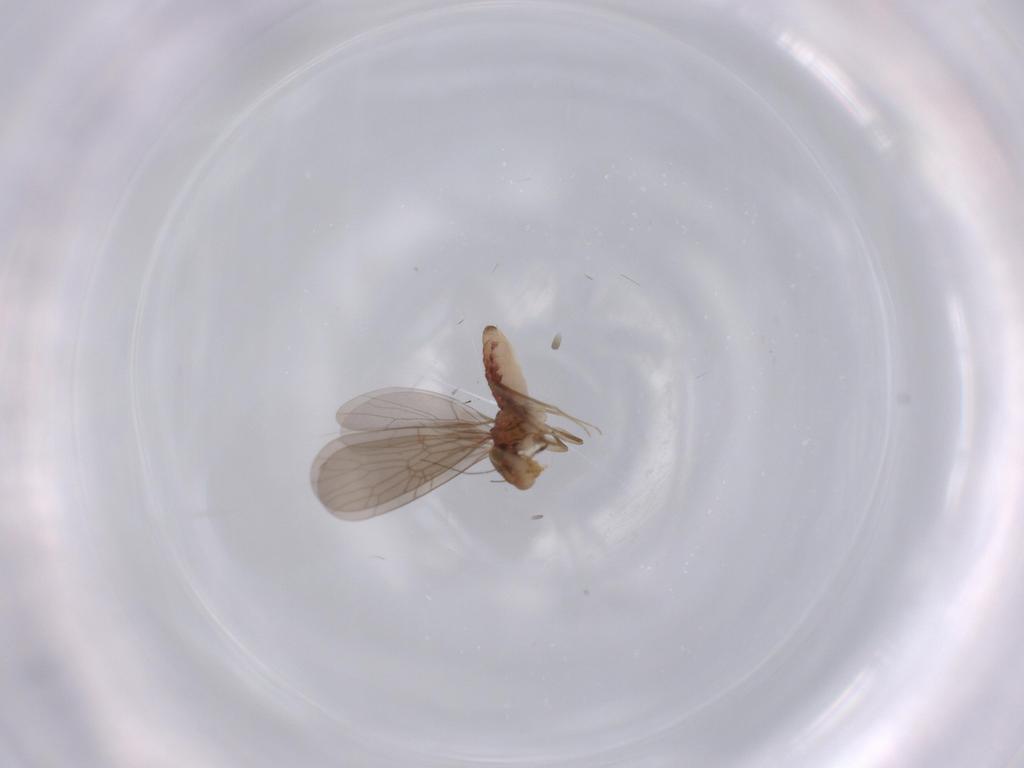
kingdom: Animalia
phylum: Arthropoda
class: Insecta
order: Psocodea
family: Lepidopsocidae
